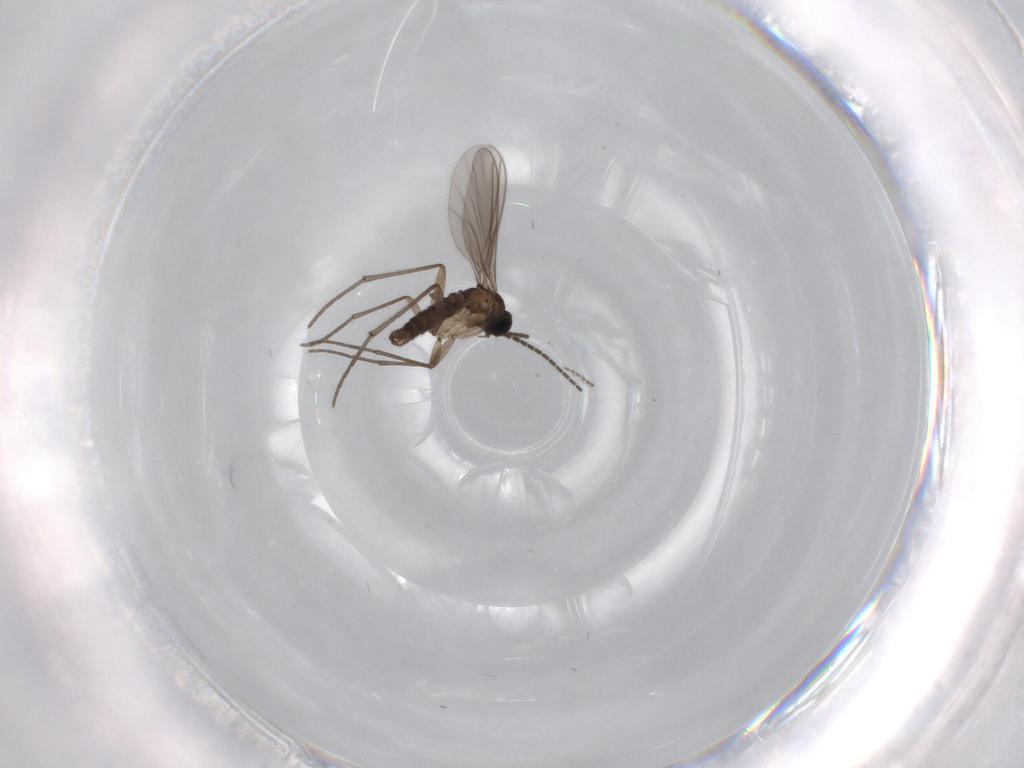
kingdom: Animalia
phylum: Arthropoda
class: Insecta
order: Diptera
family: Sciaridae
